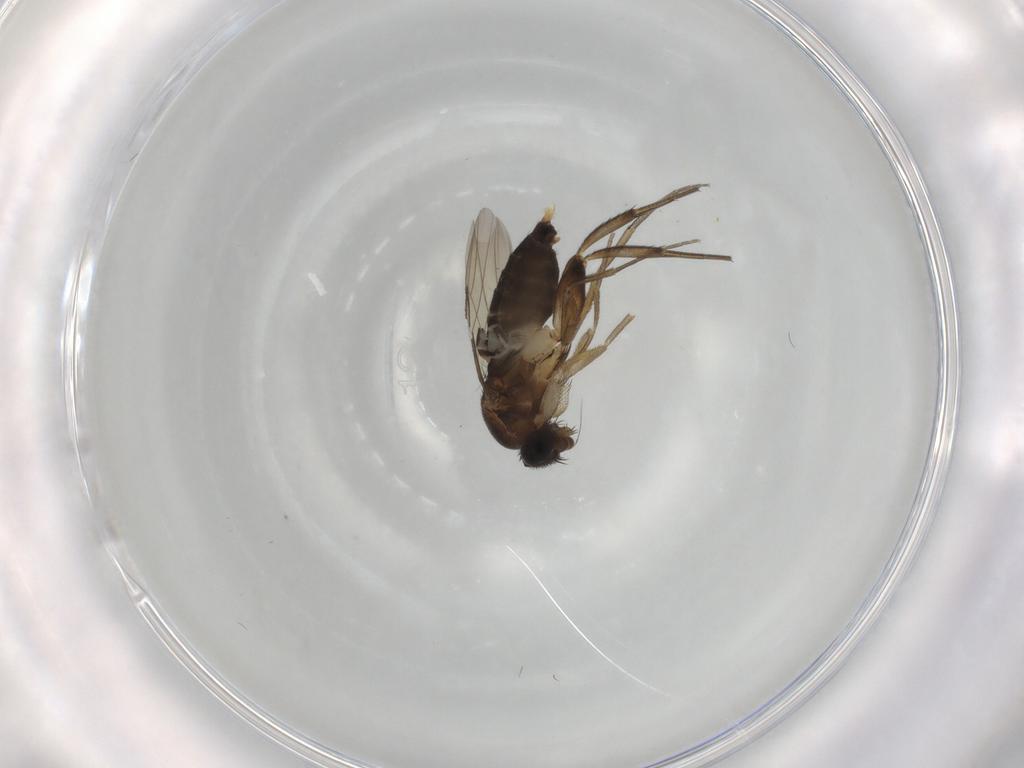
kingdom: Animalia
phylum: Arthropoda
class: Insecta
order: Diptera
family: Phoridae
